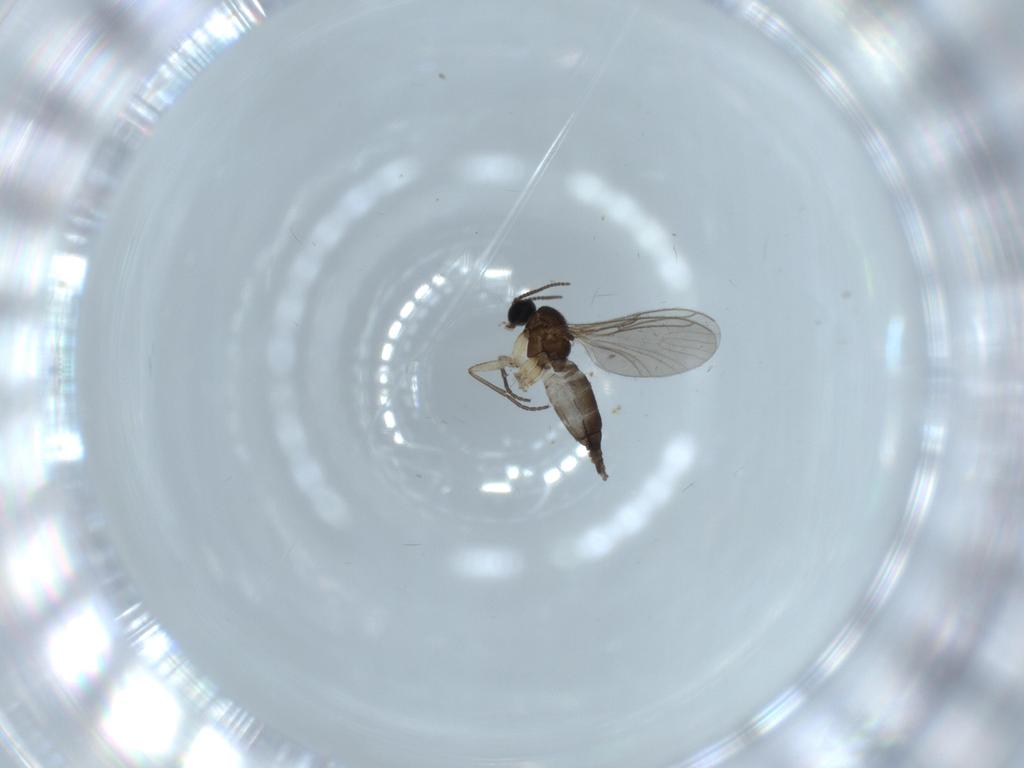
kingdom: Animalia
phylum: Arthropoda
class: Insecta
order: Diptera
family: Sciaridae
